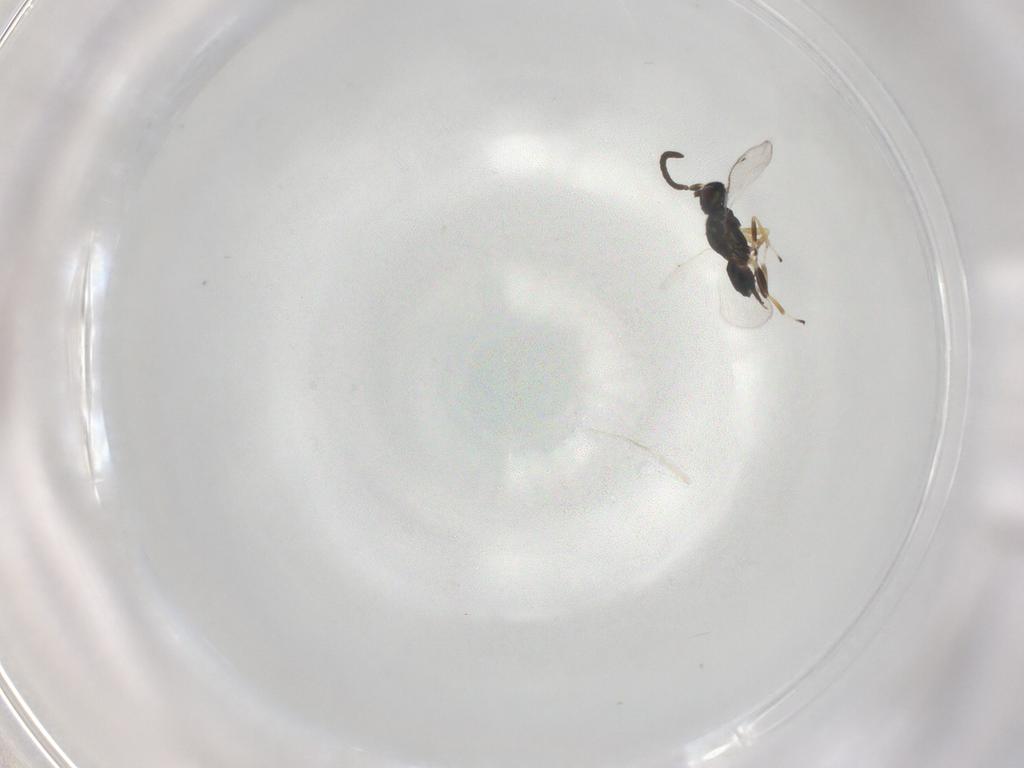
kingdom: Animalia
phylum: Arthropoda
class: Insecta
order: Hymenoptera
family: Eupelmidae
